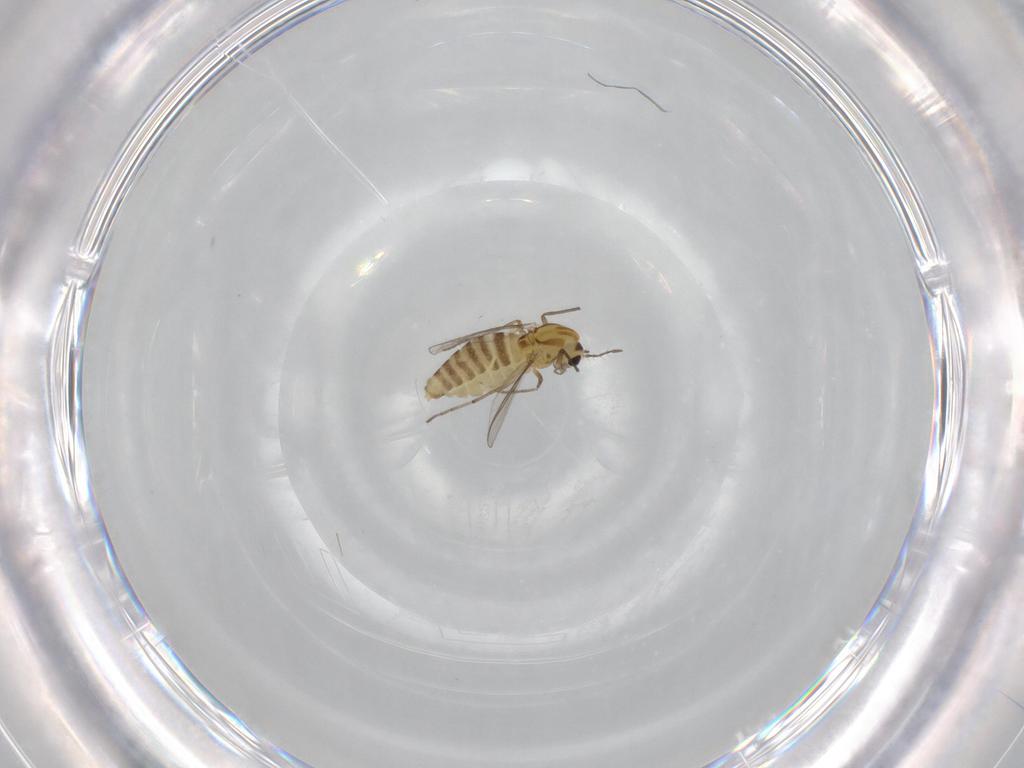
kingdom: Animalia
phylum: Arthropoda
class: Insecta
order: Diptera
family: Chironomidae
